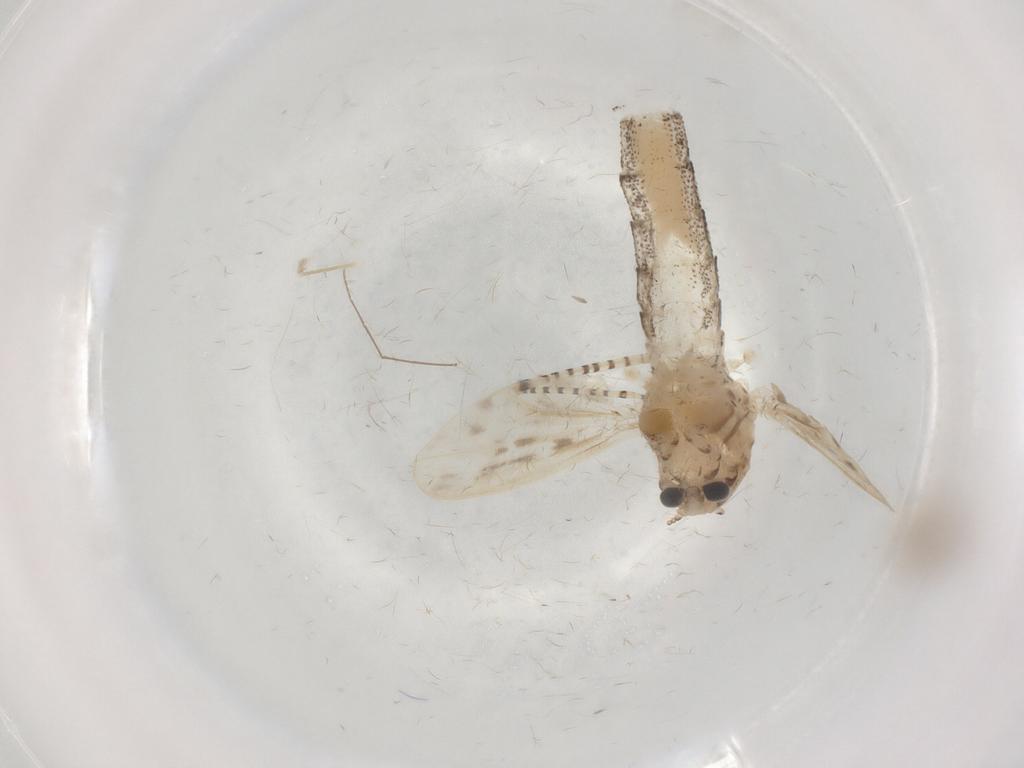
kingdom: Animalia
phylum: Arthropoda
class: Insecta
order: Diptera
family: Chaoboridae
